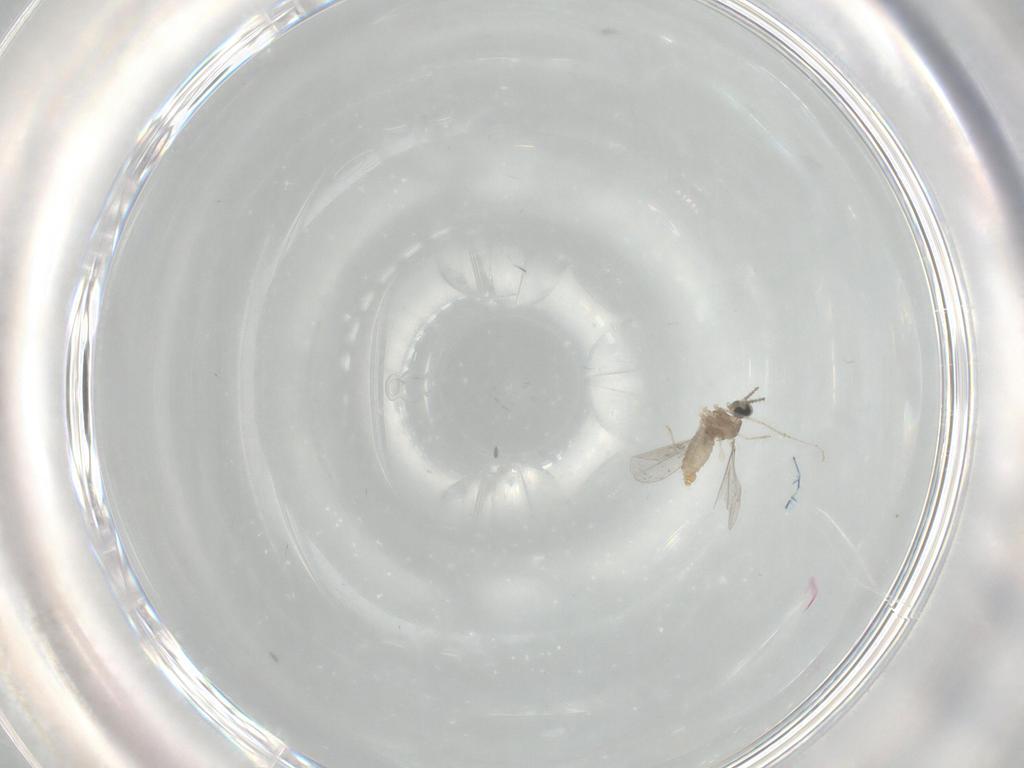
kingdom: Animalia
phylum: Arthropoda
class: Insecta
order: Diptera
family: Cecidomyiidae
